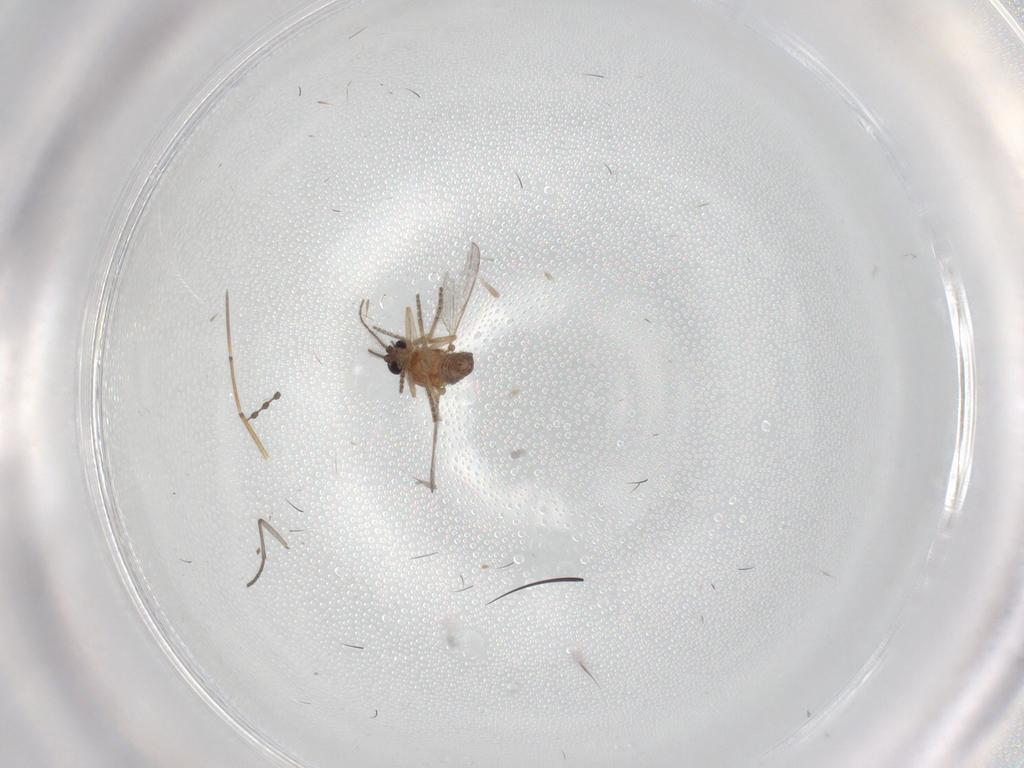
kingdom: Animalia
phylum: Arthropoda
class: Insecta
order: Diptera
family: Ceratopogonidae
